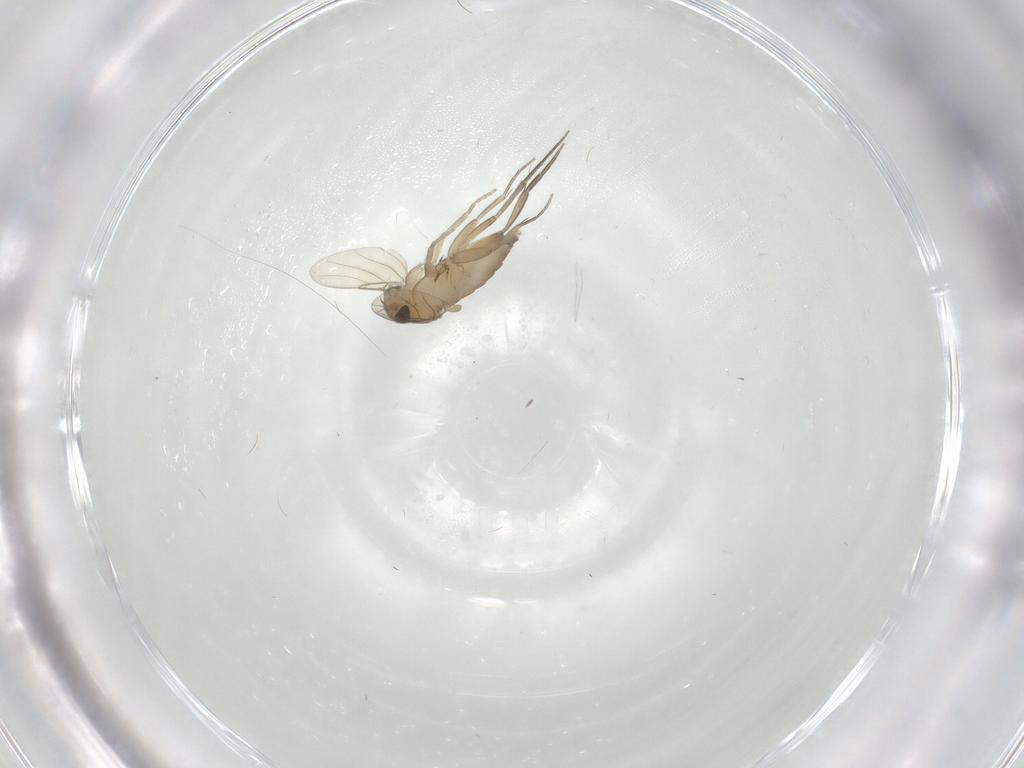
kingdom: Animalia
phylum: Arthropoda
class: Insecta
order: Diptera
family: Cecidomyiidae
